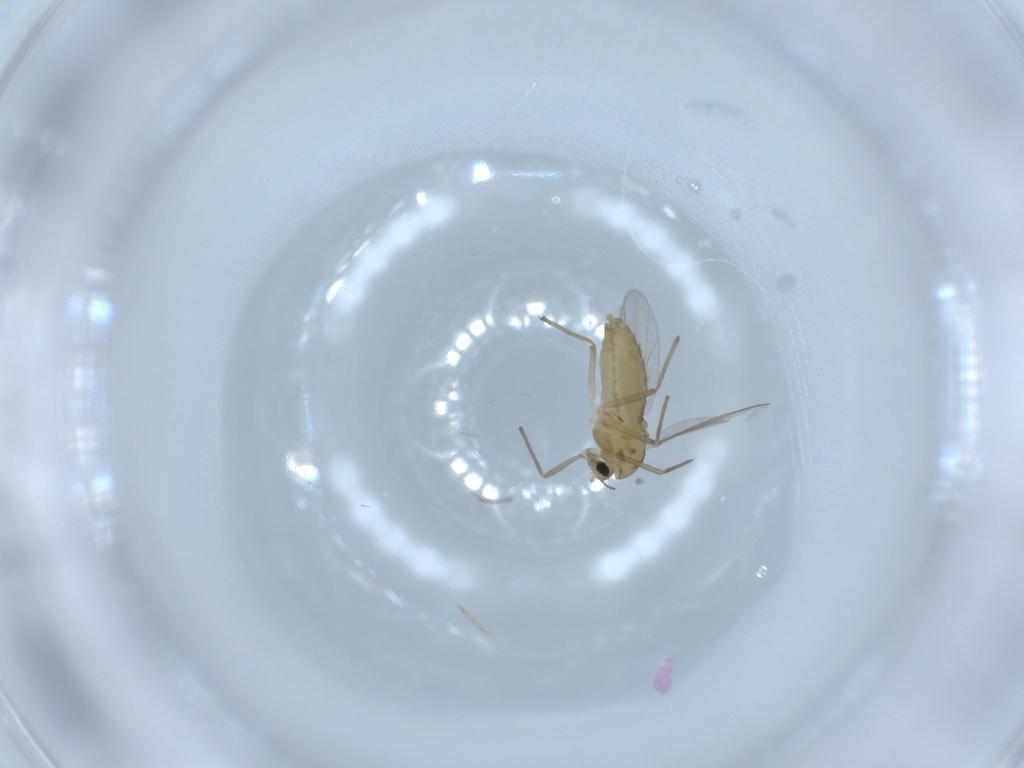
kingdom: Animalia
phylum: Arthropoda
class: Insecta
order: Diptera
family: Chironomidae
